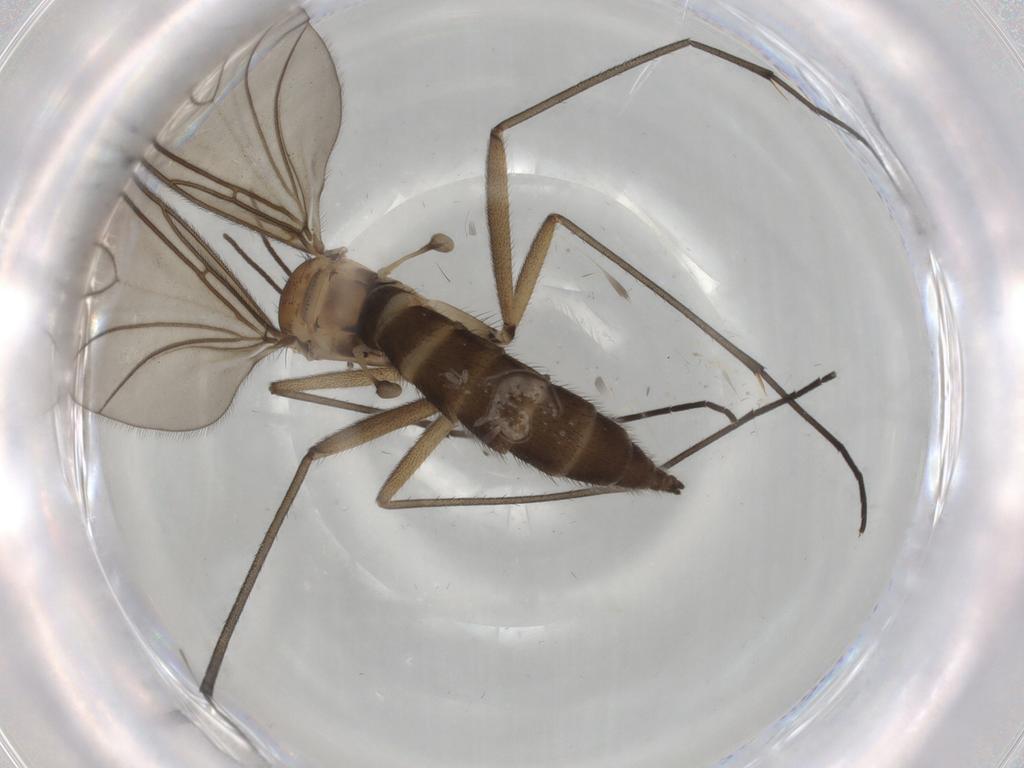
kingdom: Animalia
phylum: Arthropoda
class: Insecta
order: Diptera
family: Sciaridae
